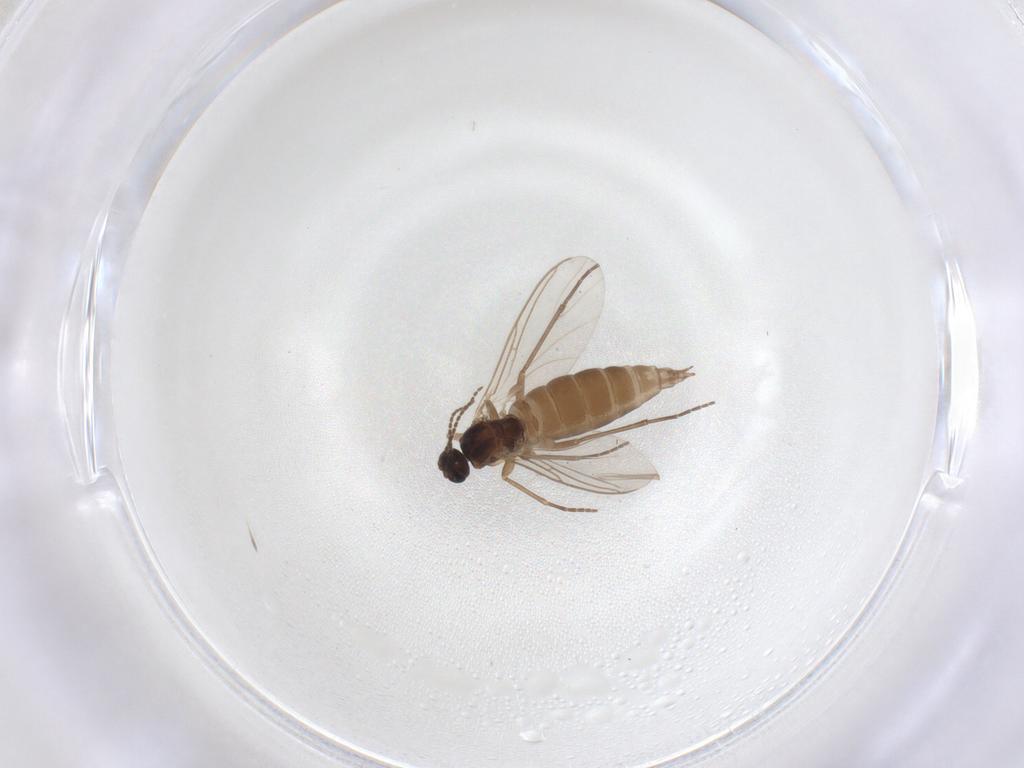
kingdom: Animalia
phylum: Arthropoda
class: Insecta
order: Diptera
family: Sciaridae
